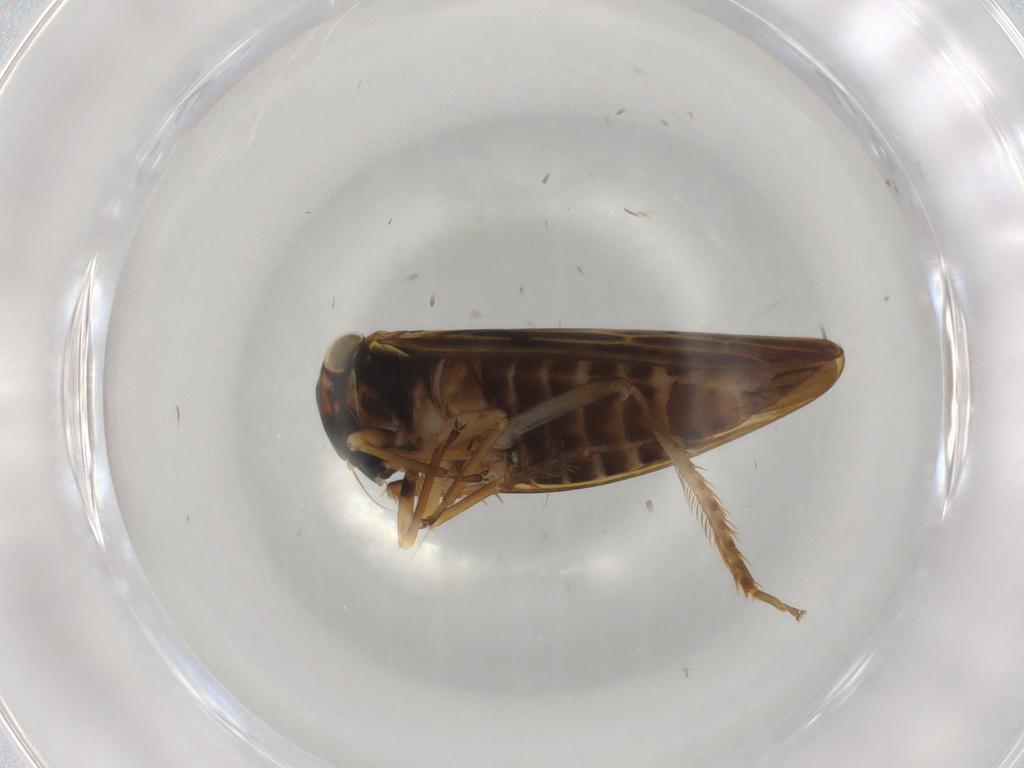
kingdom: Animalia
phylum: Arthropoda
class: Insecta
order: Hemiptera
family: Cicadellidae
